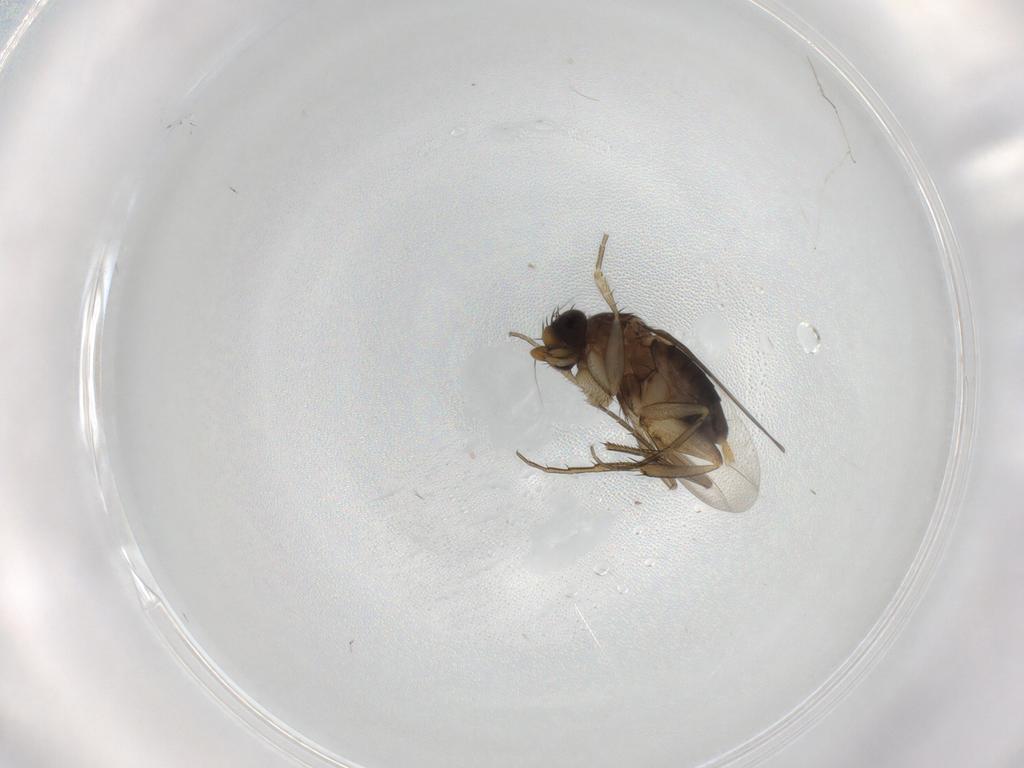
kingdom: Animalia
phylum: Arthropoda
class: Insecta
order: Diptera
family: Phoridae
